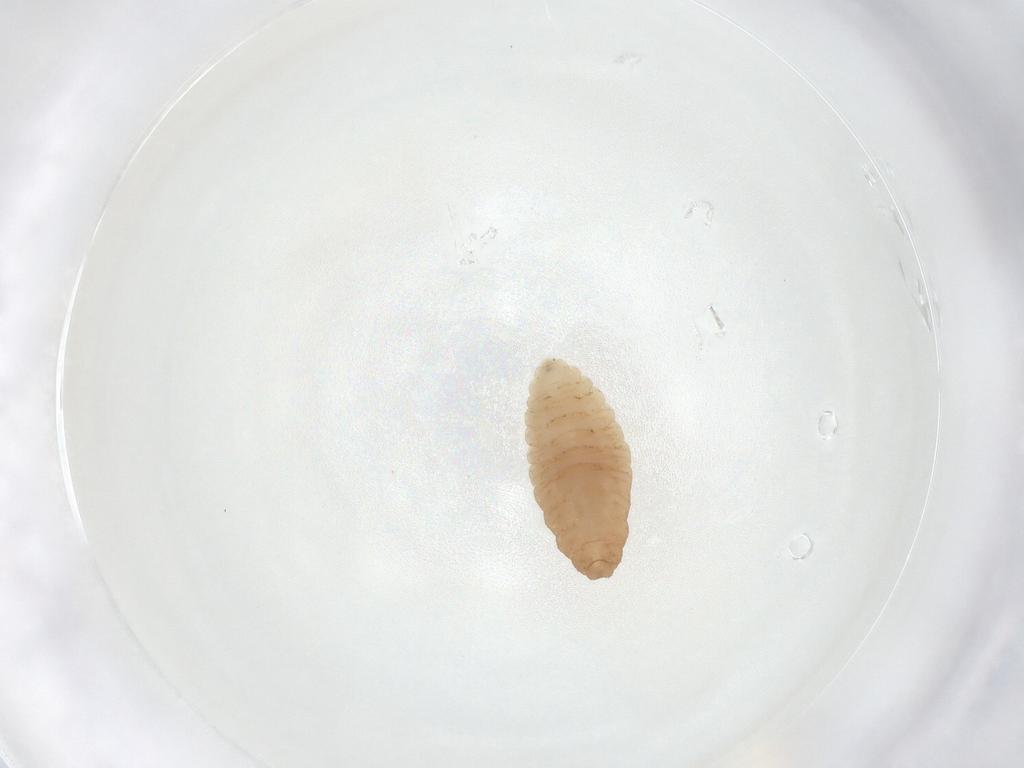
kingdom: Animalia
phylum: Arthropoda
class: Insecta
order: Diptera
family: Cecidomyiidae
